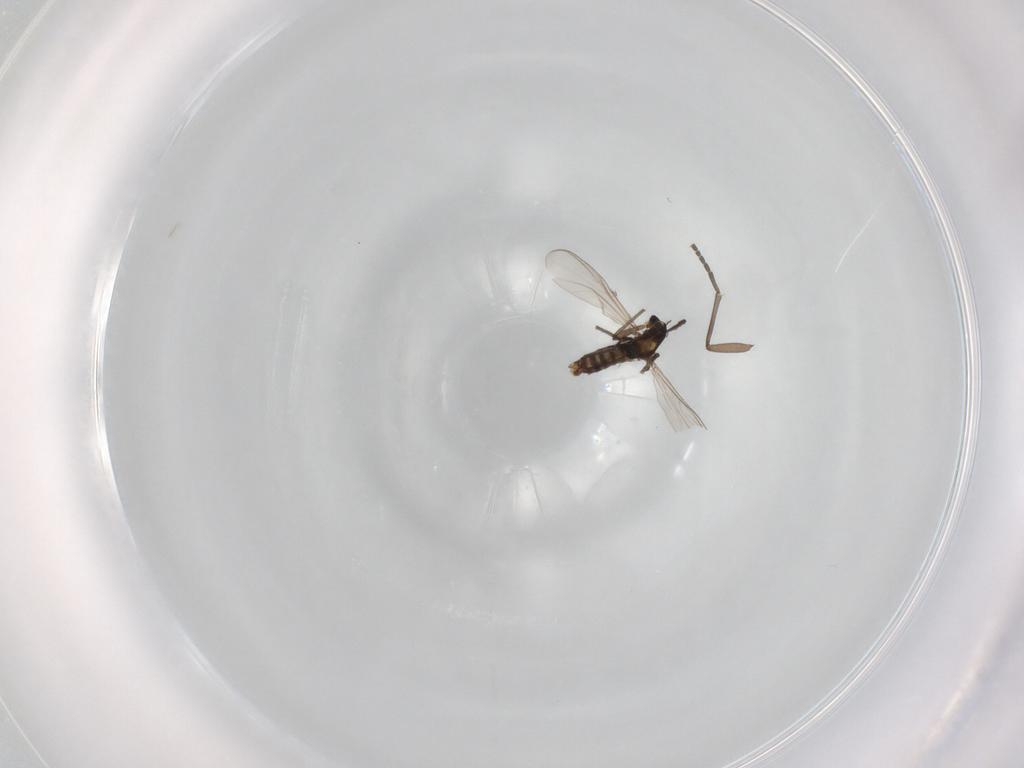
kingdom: Animalia
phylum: Arthropoda
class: Insecta
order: Diptera
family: Sciaridae
